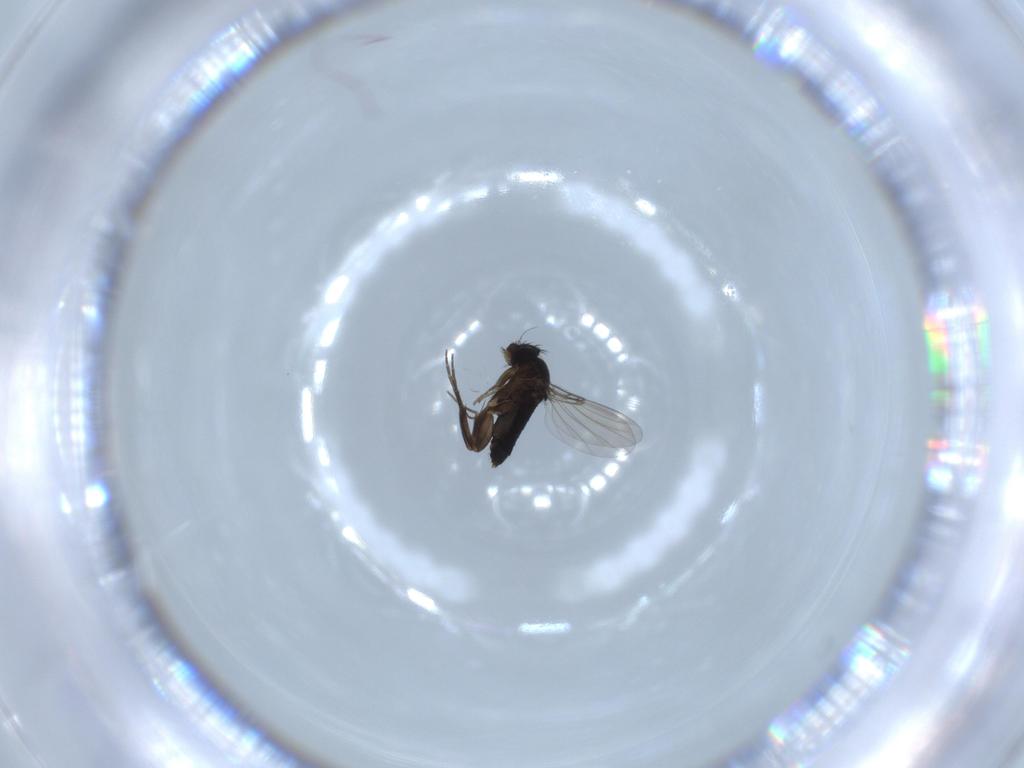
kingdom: Animalia
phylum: Arthropoda
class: Insecta
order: Diptera
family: Phoridae
